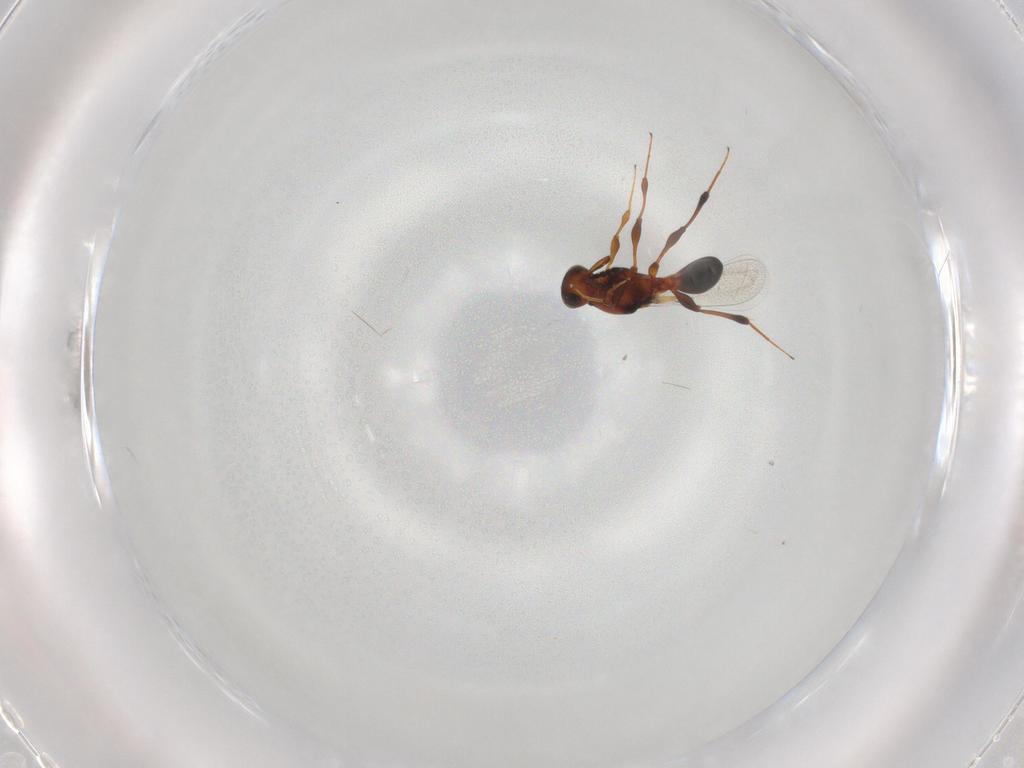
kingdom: Animalia
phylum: Arthropoda
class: Insecta
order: Hymenoptera
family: Platygastridae
